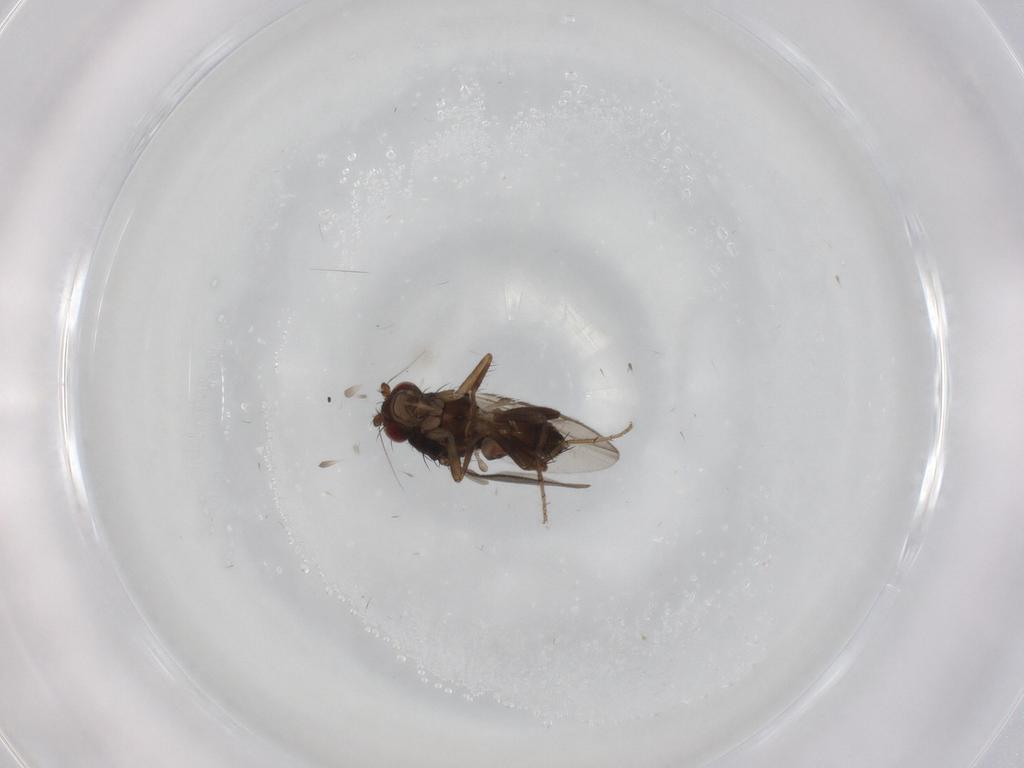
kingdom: Animalia
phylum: Arthropoda
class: Insecta
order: Diptera
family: Cecidomyiidae
